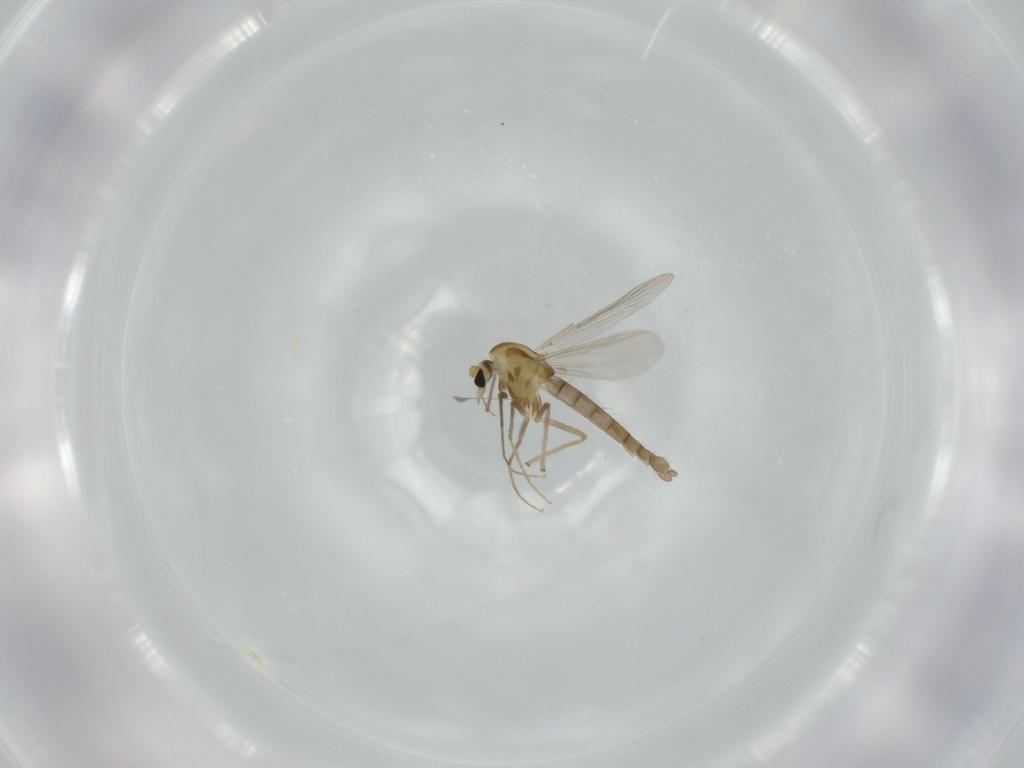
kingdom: Animalia
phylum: Arthropoda
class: Insecta
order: Diptera
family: Chironomidae
